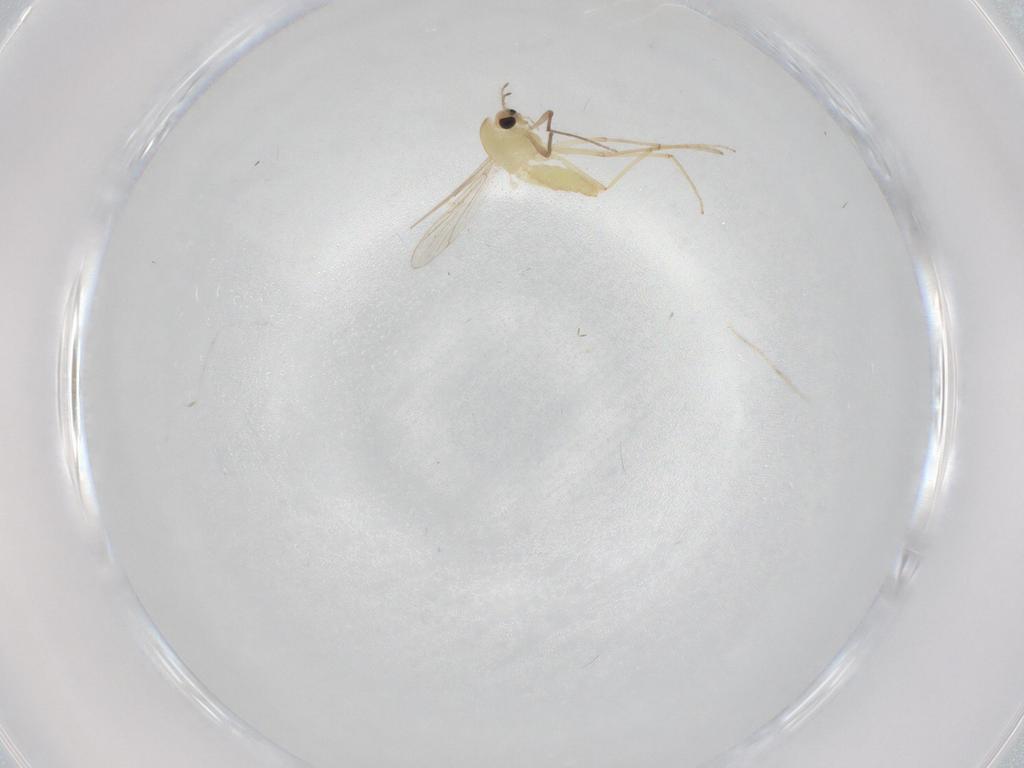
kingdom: Animalia
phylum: Arthropoda
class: Insecta
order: Diptera
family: Chironomidae
